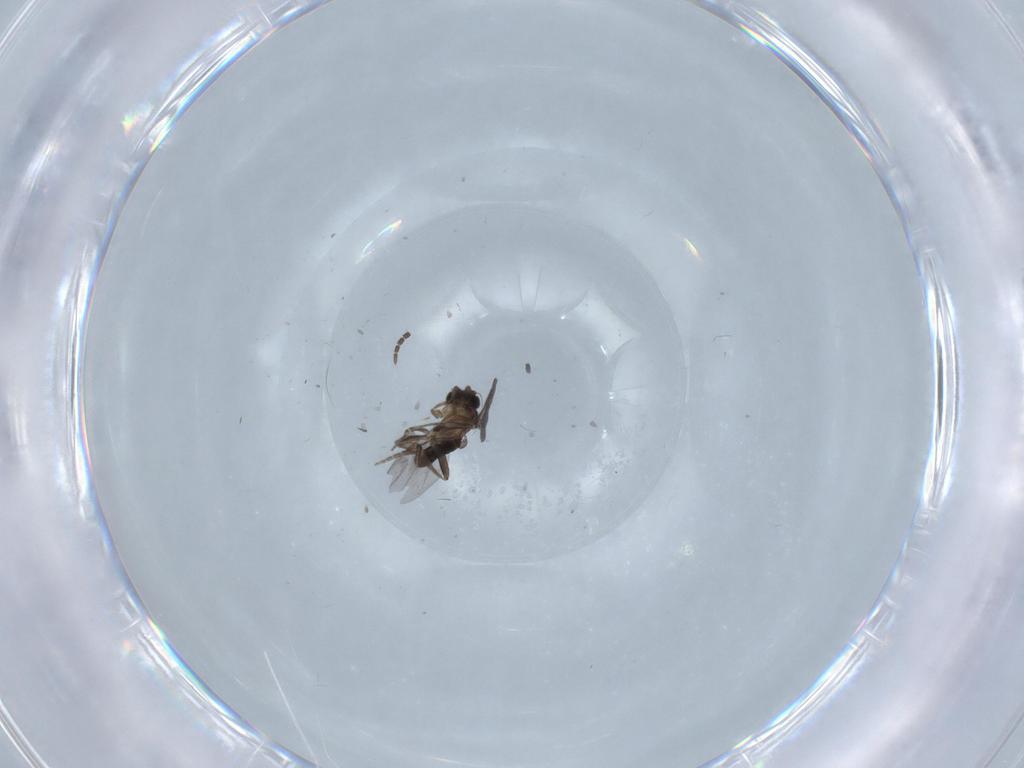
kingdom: Animalia
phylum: Arthropoda
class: Insecta
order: Diptera
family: Sciaridae
